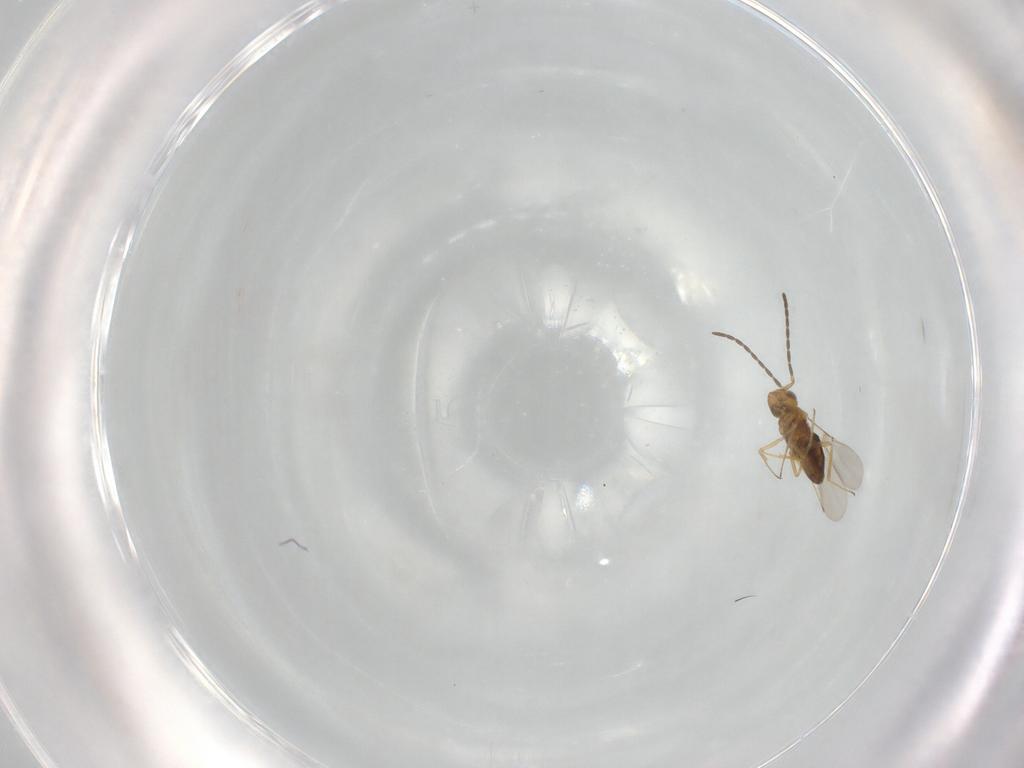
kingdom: Animalia
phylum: Arthropoda
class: Insecta
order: Hymenoptera
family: Encyrtidae
